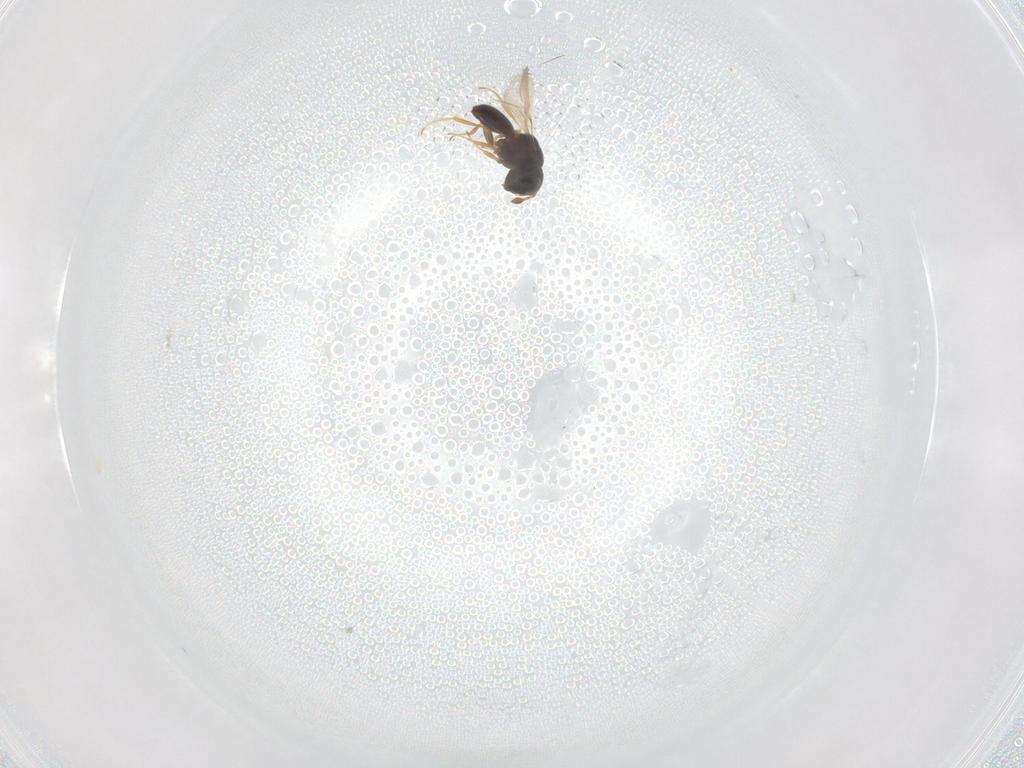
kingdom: Animalia
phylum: Arthropoda
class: Insecta
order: Hymenoptera
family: Scelionidae
